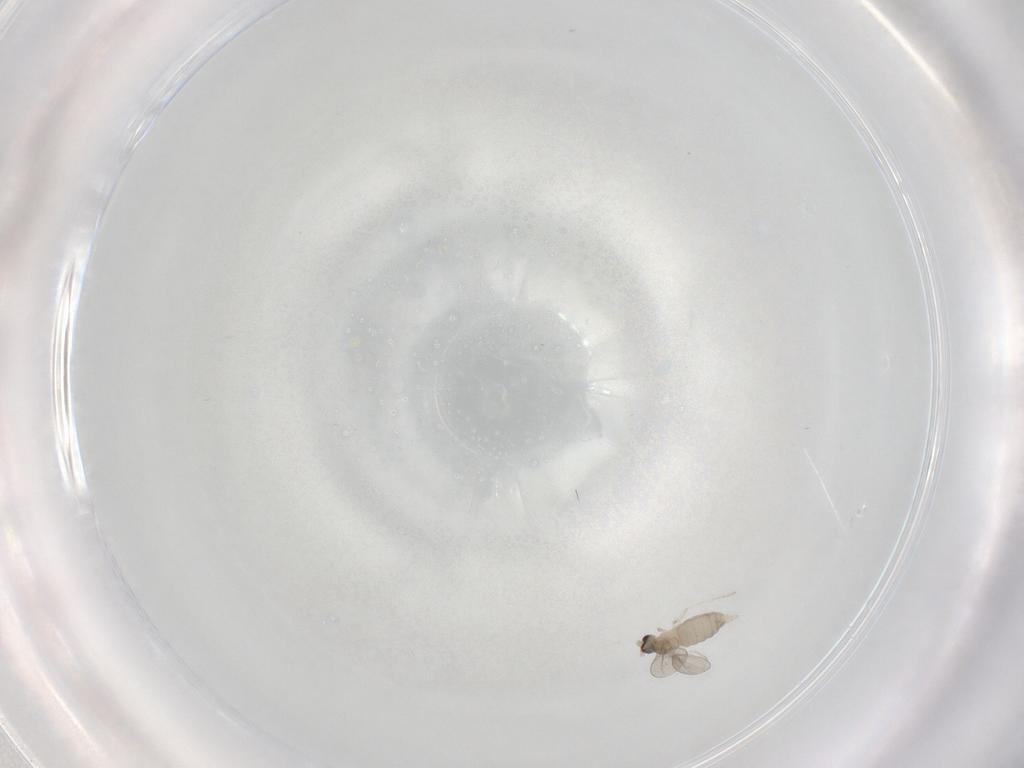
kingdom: Animalia
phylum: Arthropoda
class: Insecta
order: Diptera
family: Cecidomyiidae
